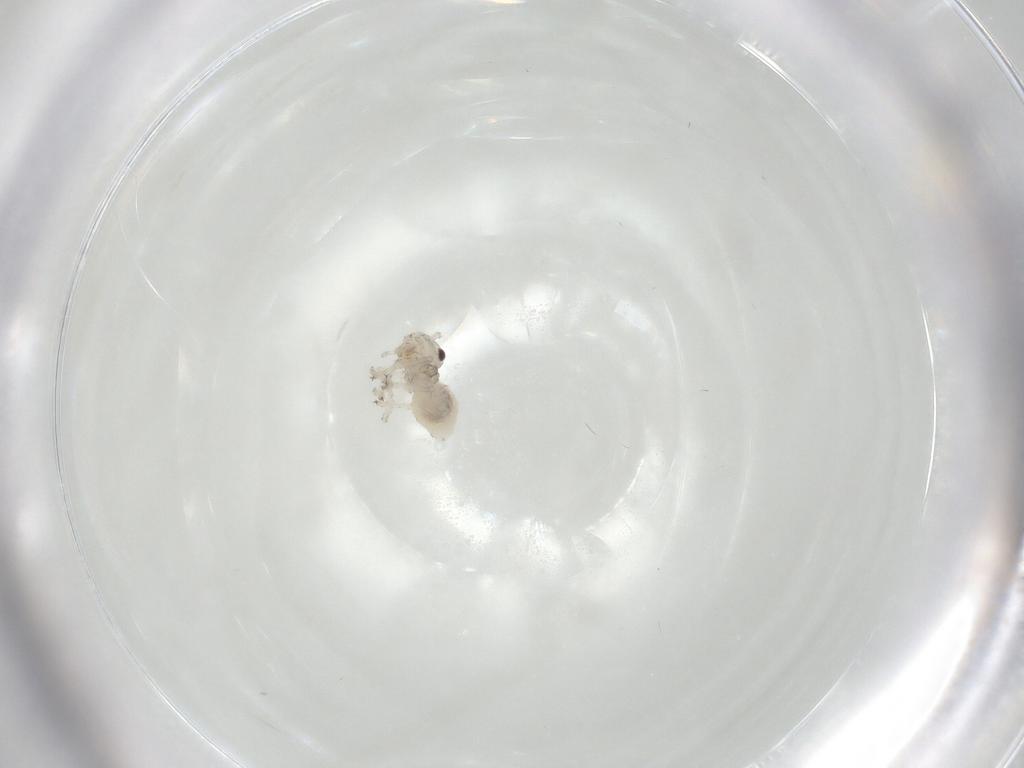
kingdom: Animalia
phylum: Arthropoda
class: Insecta
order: Psocodea
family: Amphipsocidae
